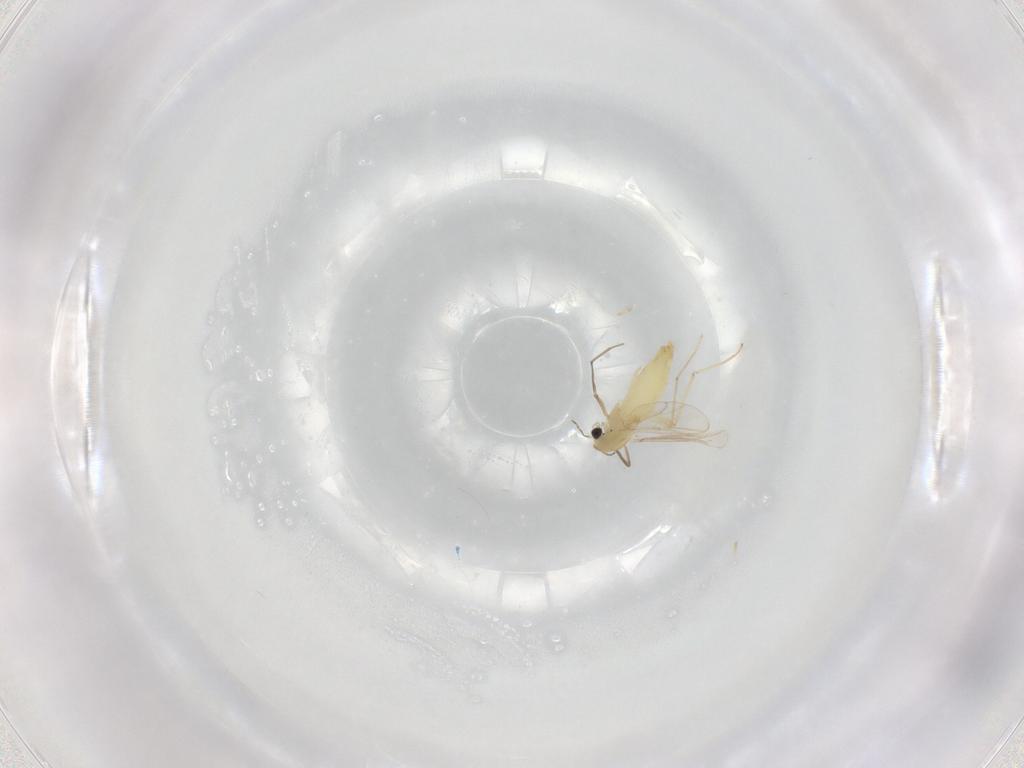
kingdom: Animalia
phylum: Arthropoda
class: Insecta
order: Diptera
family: Chironomidae
